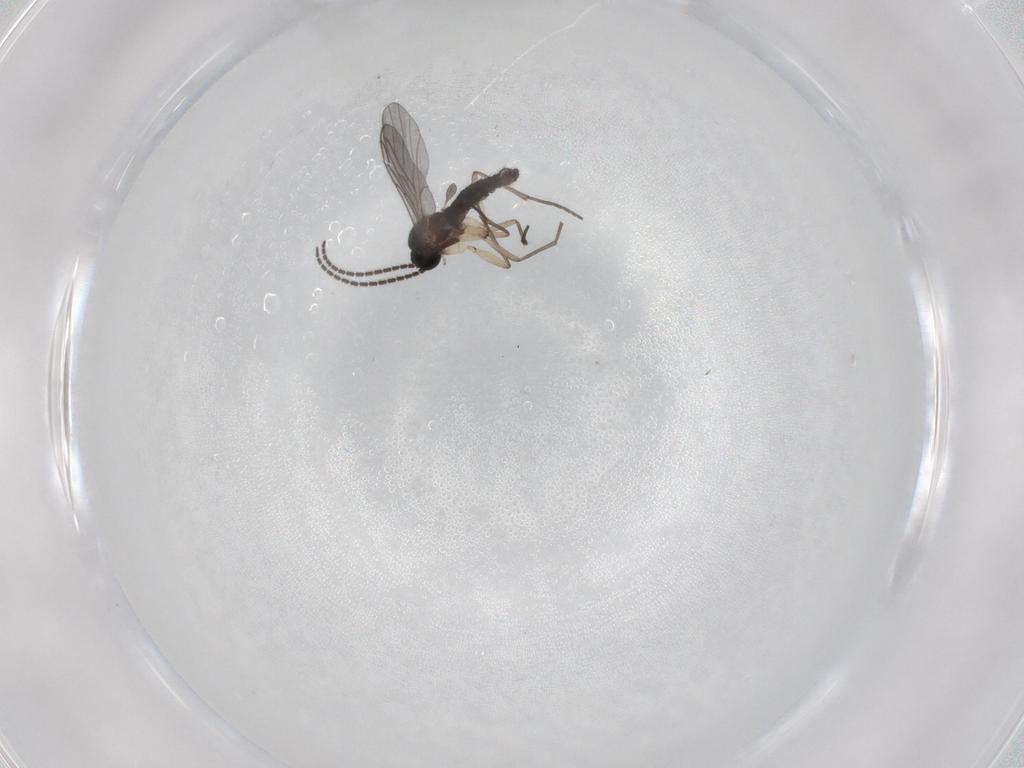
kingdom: Animalia
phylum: Arthropoda
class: Insecta
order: Diptera
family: Sciaridae
